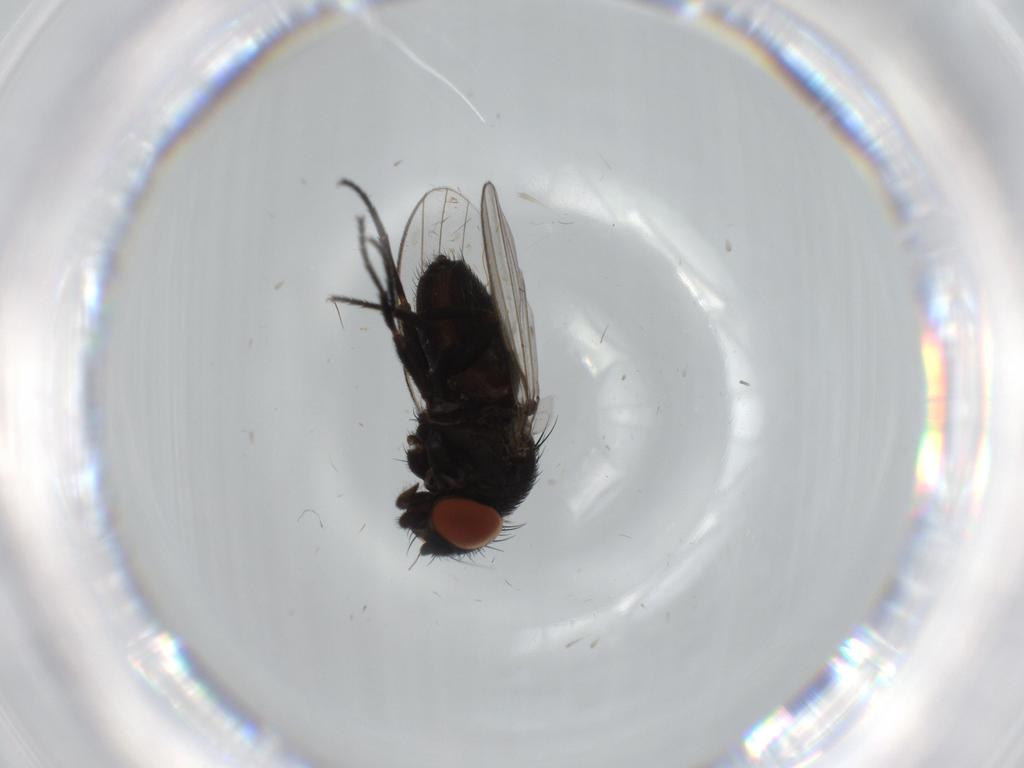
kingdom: Animalia
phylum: Arthropoda
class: Insecta
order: Diptera
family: Milichiidae
